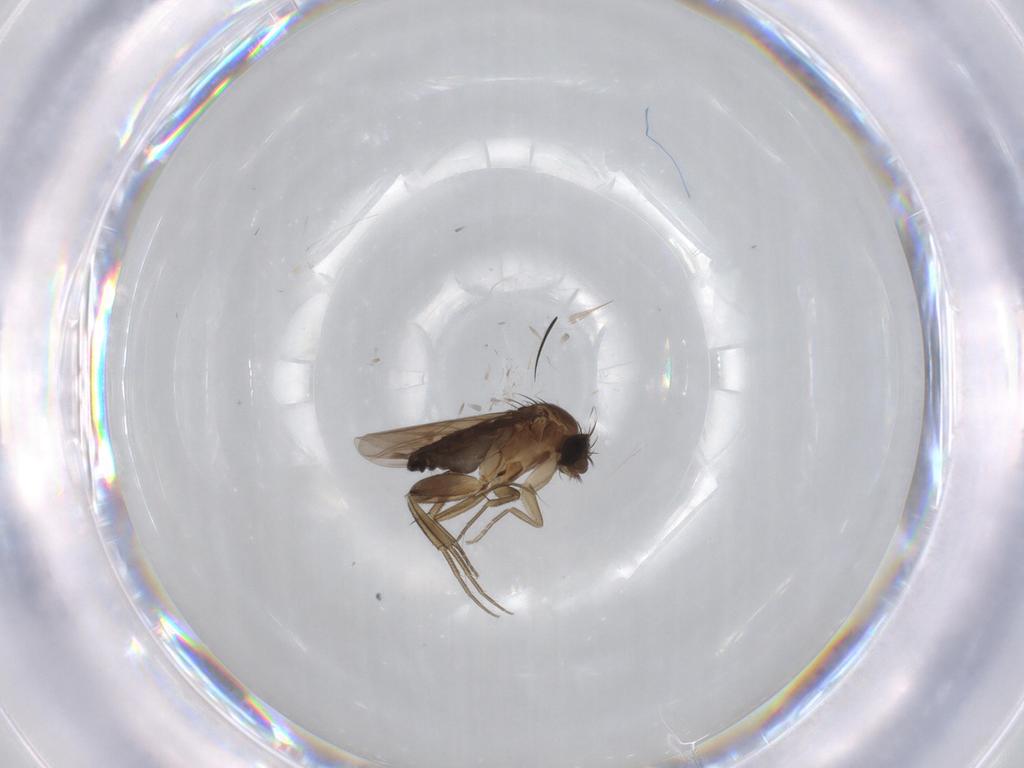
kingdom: Animalia
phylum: Arthropoda
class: Insecta
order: Diptera
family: Phoridae
